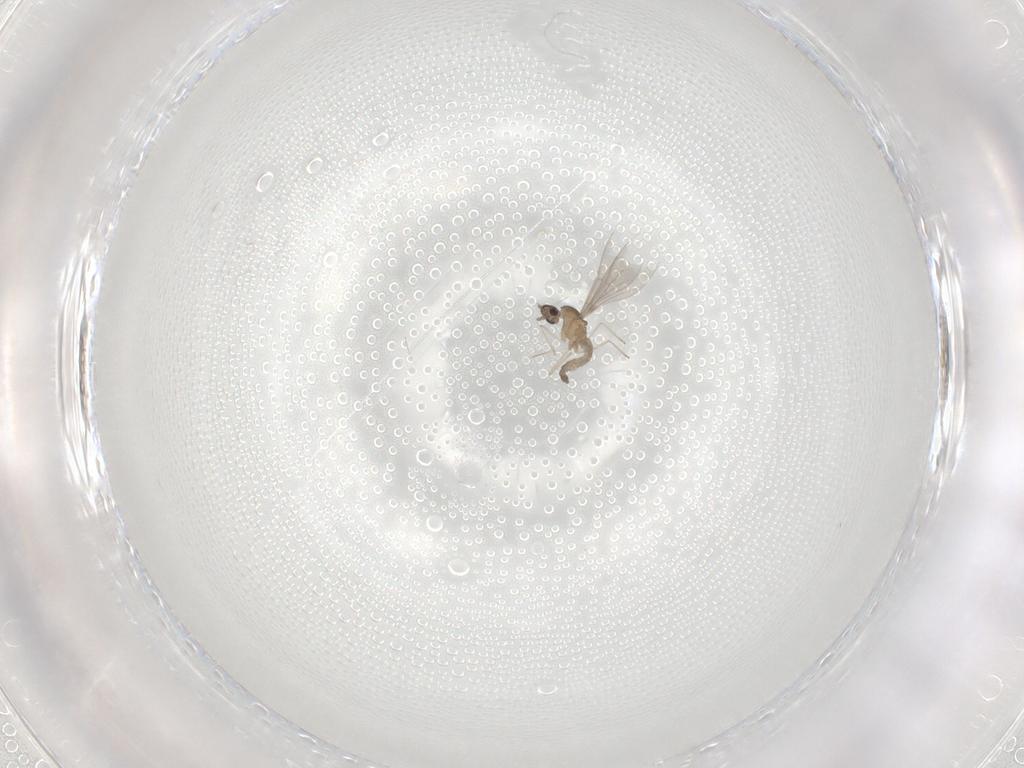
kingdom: Animalia
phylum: Arthropoda
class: Insecta
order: Diptera
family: Cecidomyiidae
